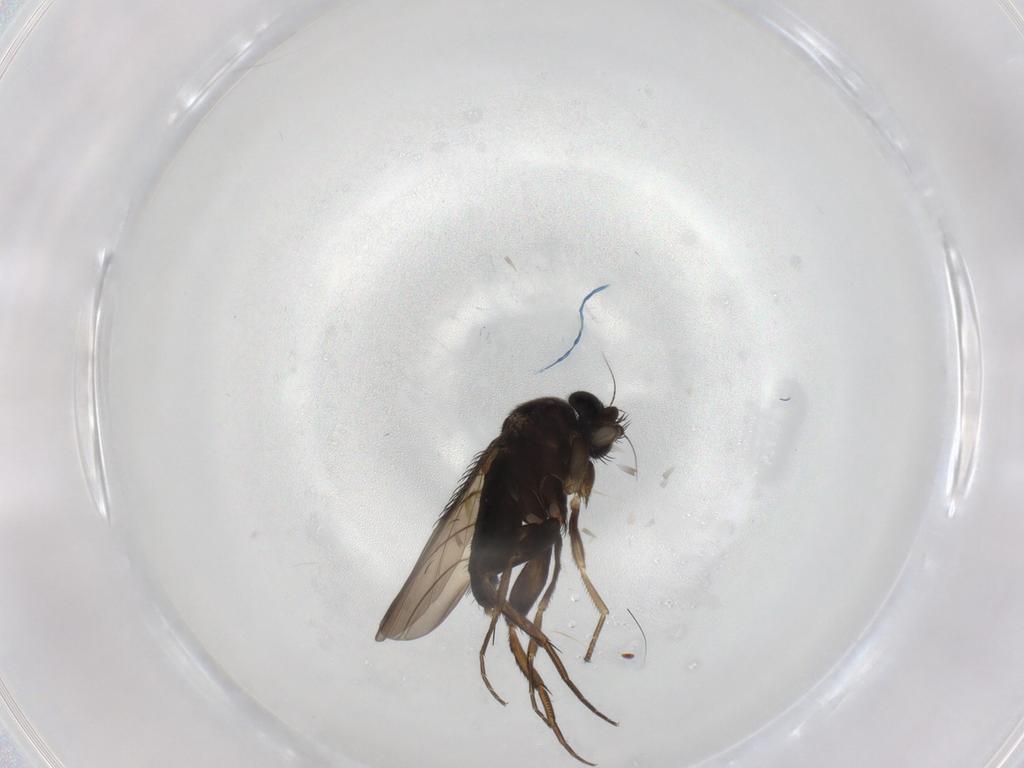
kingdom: Animalia
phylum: Arthropoda
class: Insecta
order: Diptera
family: Phoridae
